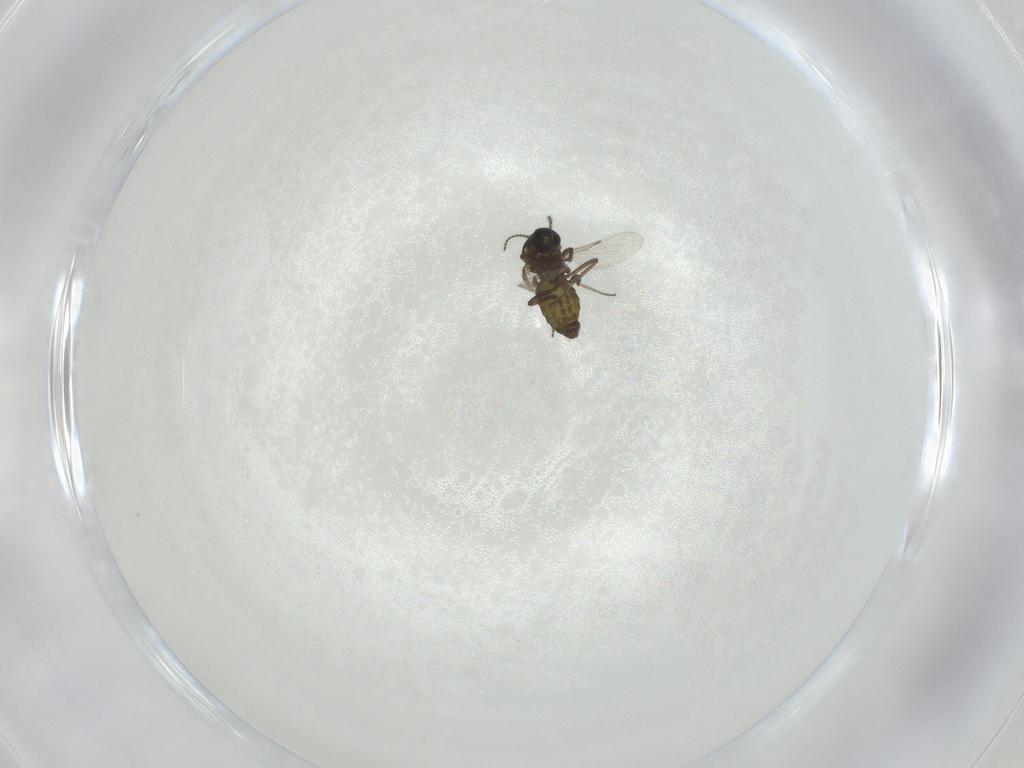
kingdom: Animalia
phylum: Arthropoda
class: Insecta
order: Diptera
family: Ceratopogonidae
